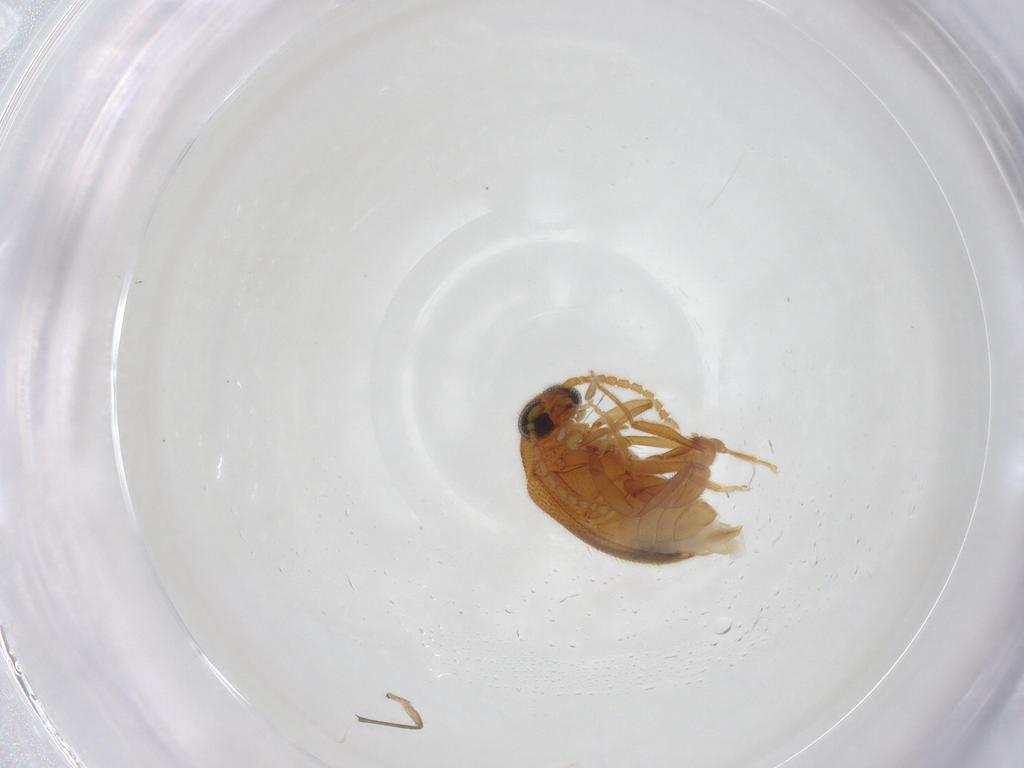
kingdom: Animalia
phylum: Arthropoda
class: Insecta
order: Coleoptera
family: Aderidae
